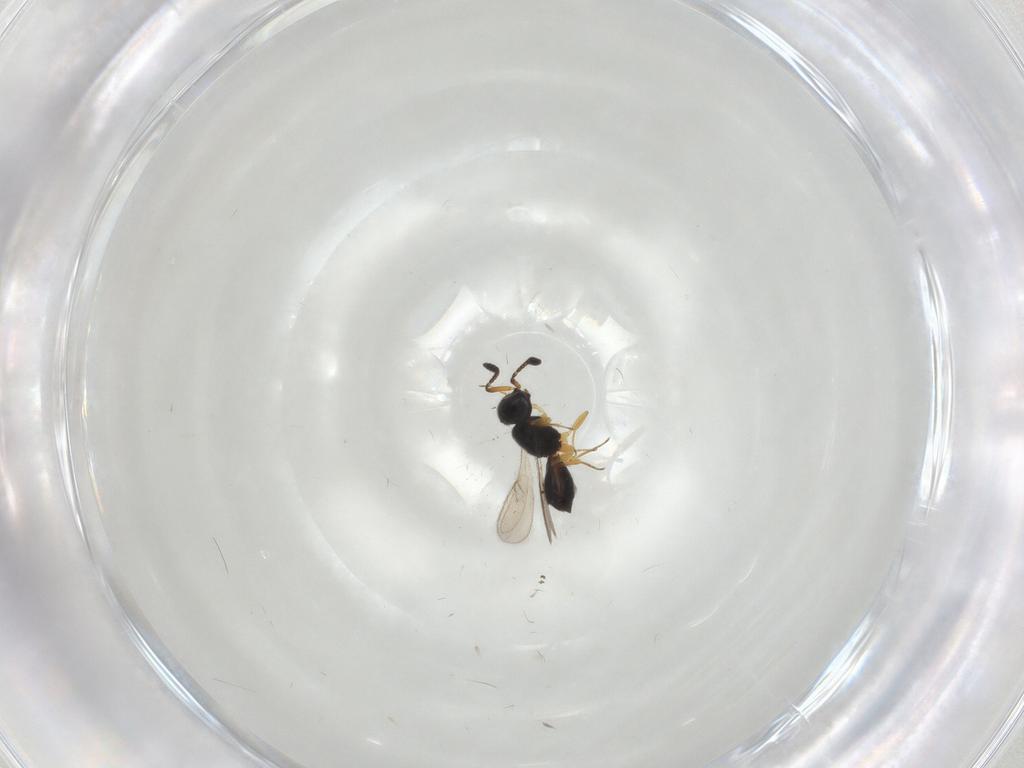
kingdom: Animalia
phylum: Arthropoda
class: Insecta
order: Hymenoptera
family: Scelionidae
